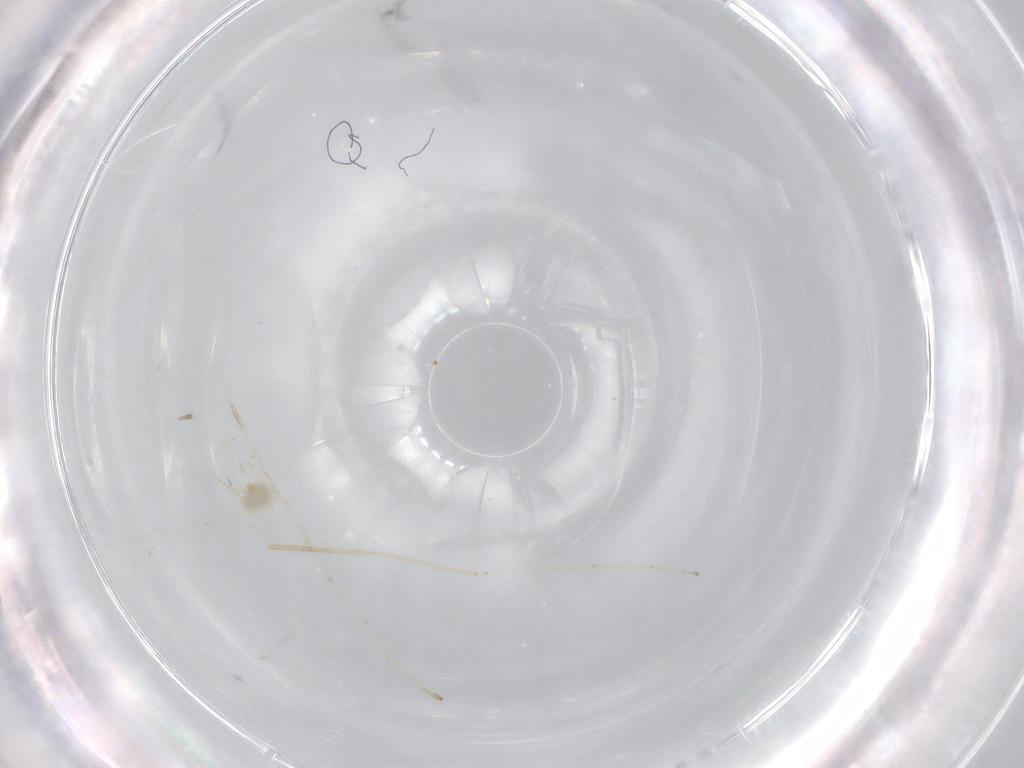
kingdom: Animalia
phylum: Arthropoda
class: Insecta
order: Diptera
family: Cecidomyiidae
